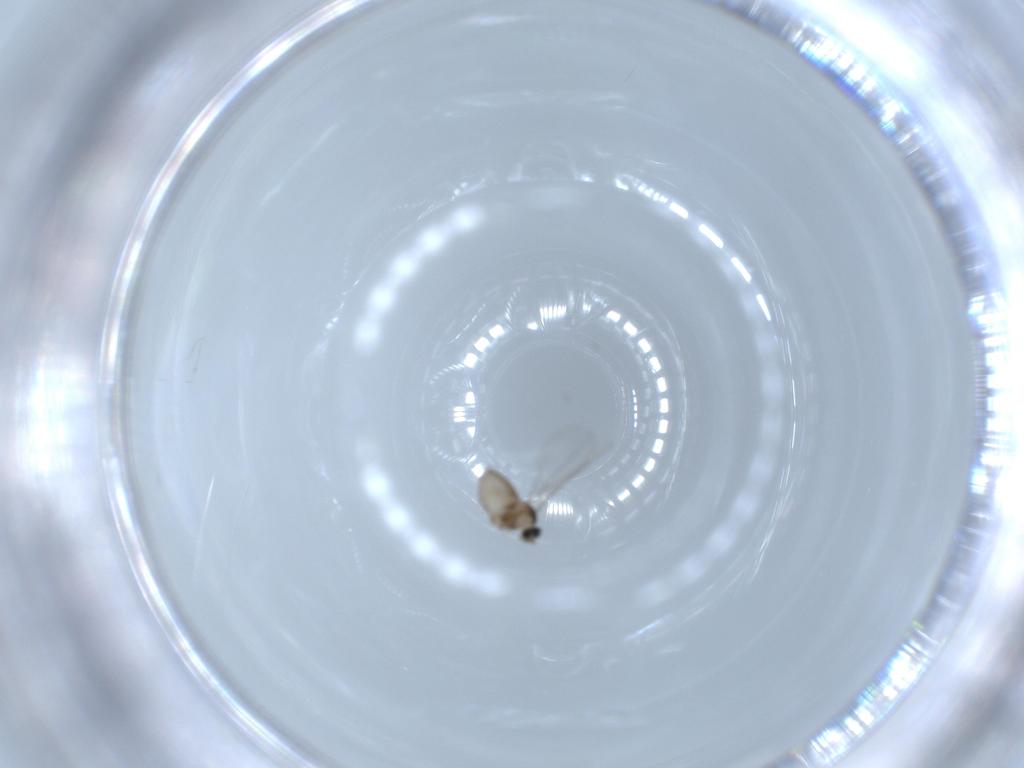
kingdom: Animalia
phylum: Arthropoda
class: Insecta
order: Diptera
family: Cecidomyiidae
